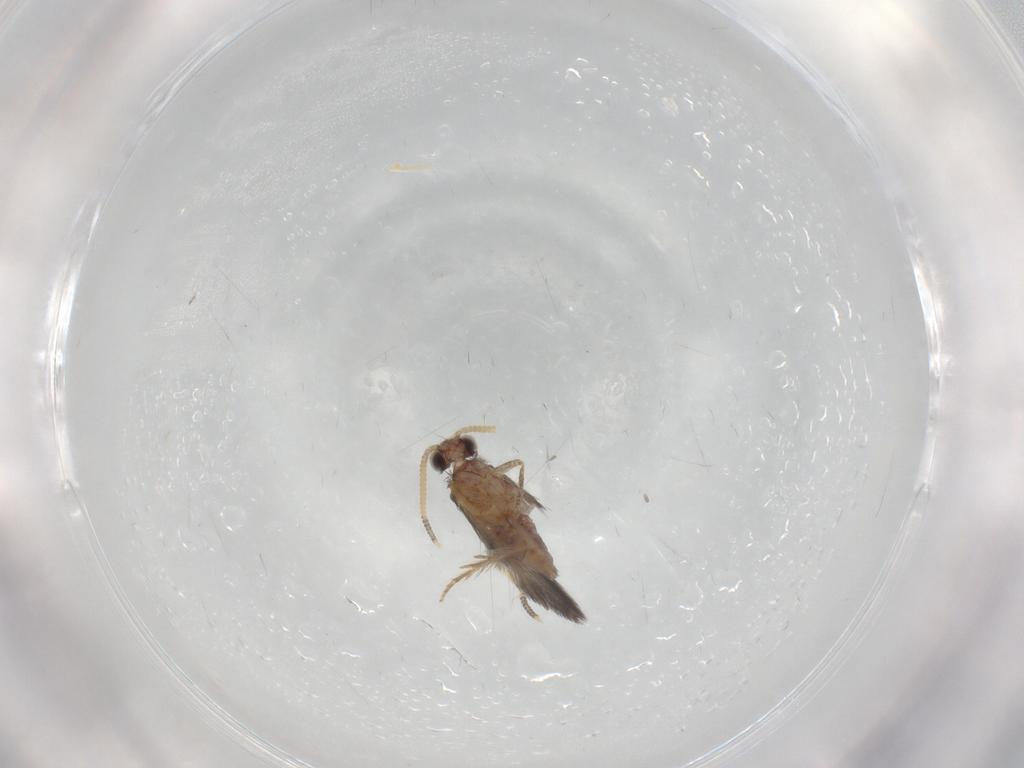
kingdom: Animalia
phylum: Arthropoda
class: Insecta
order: Trichoptera
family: Hydroptilidae
